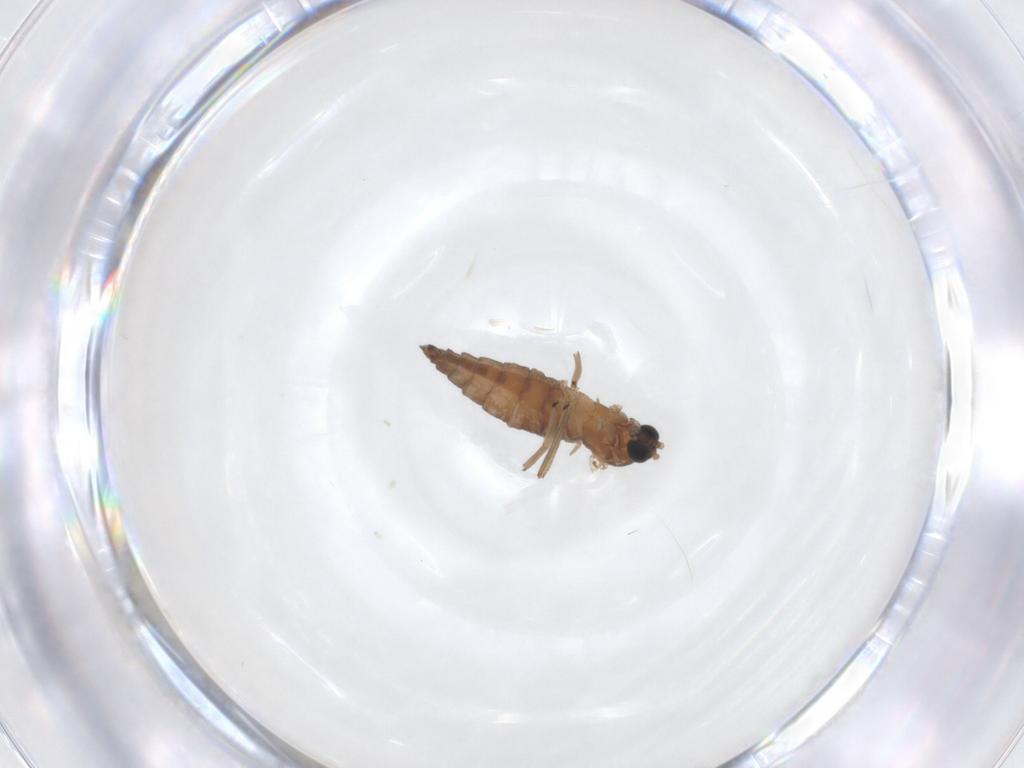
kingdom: Animalia
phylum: Arthropoda
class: Insecta
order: Diptera
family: Sciaridae
